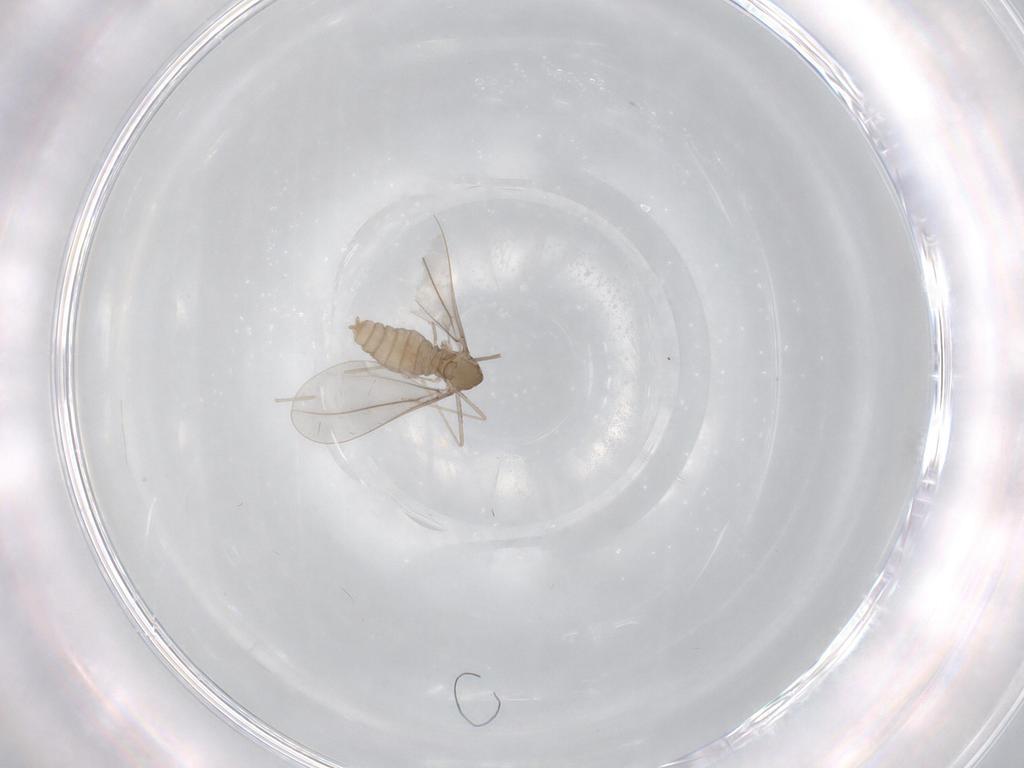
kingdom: Animalia
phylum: Arthropoda
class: Insecta
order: Diptera
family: Cecidomyiidae
